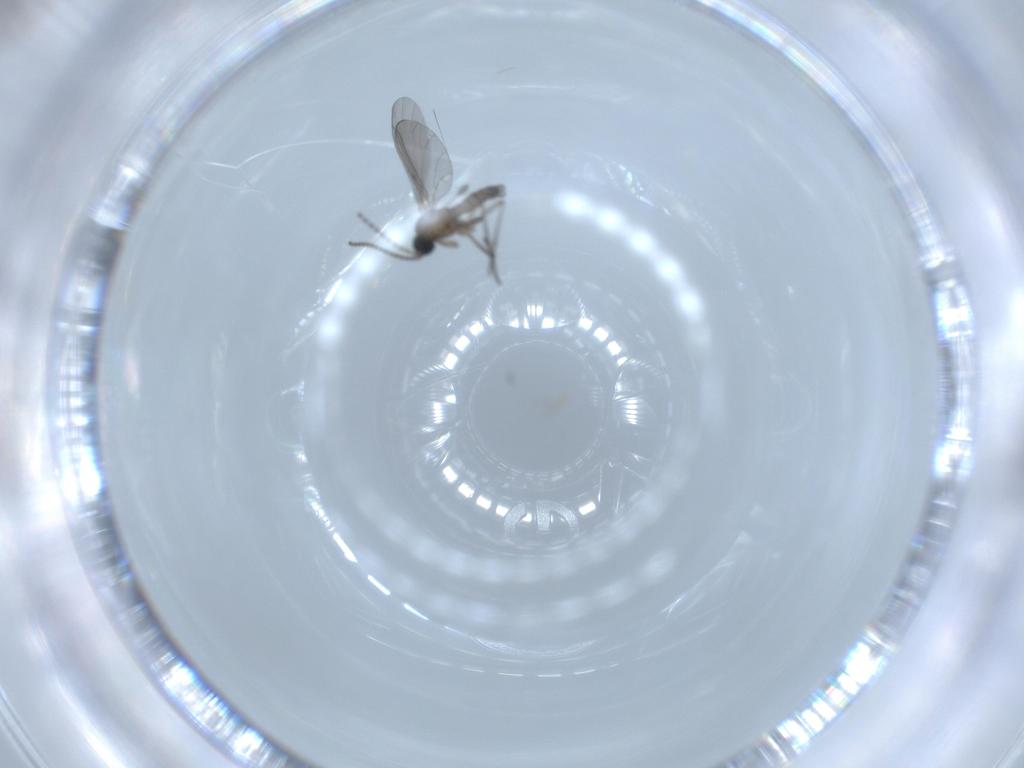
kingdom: Animalia
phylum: Arthropoda
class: Insecta
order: Diptera
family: Sciaridae
